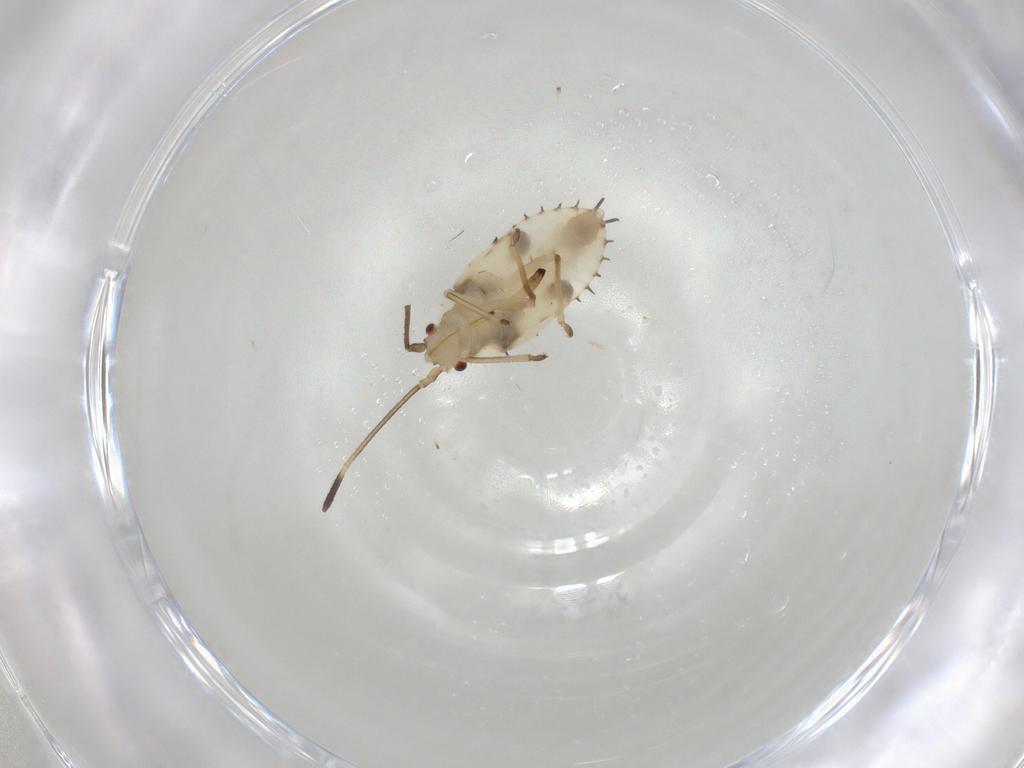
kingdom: Animalia
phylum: Arthropoda
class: Insecta
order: Hemiptera
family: Tingidae
